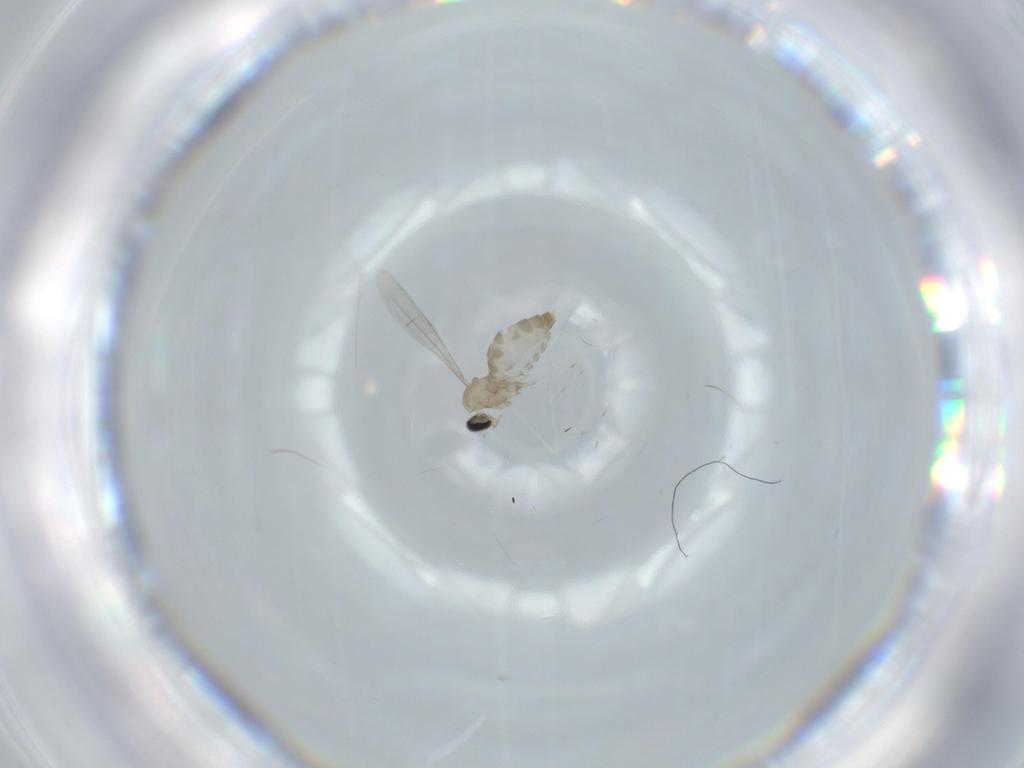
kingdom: Animalia
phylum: Arthropoda
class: Insecta
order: Diptera
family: Cecidomyiidae
